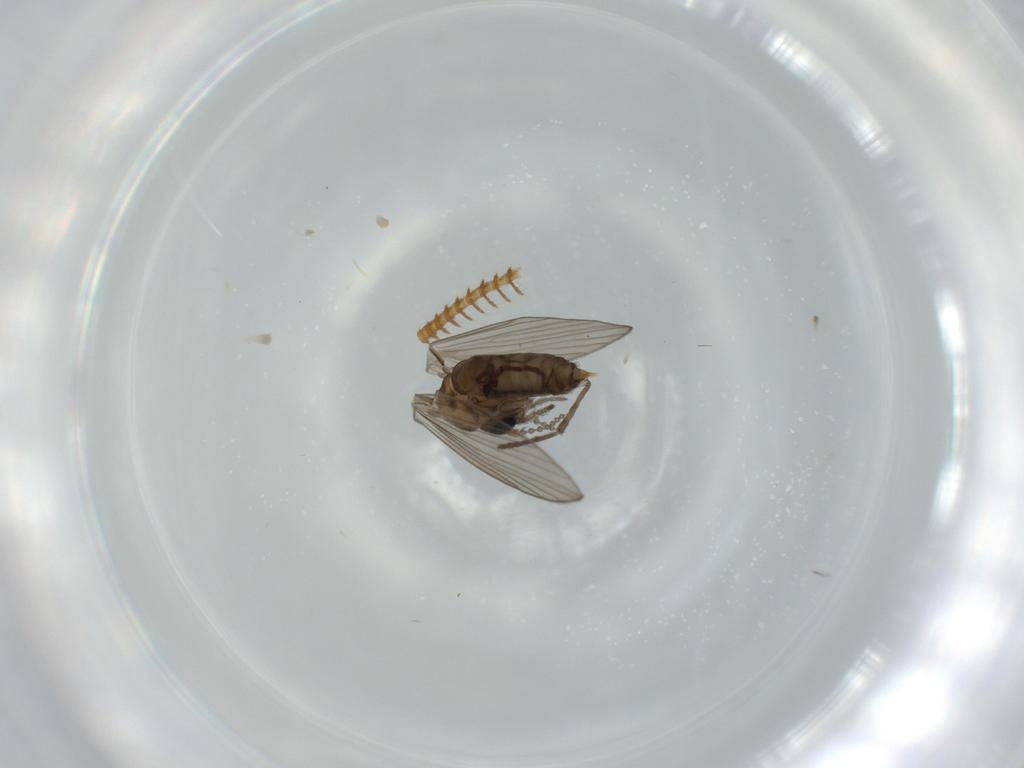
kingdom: Animalia
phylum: Arthropoda
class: Insecta
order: Diptera
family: Psychodidae
